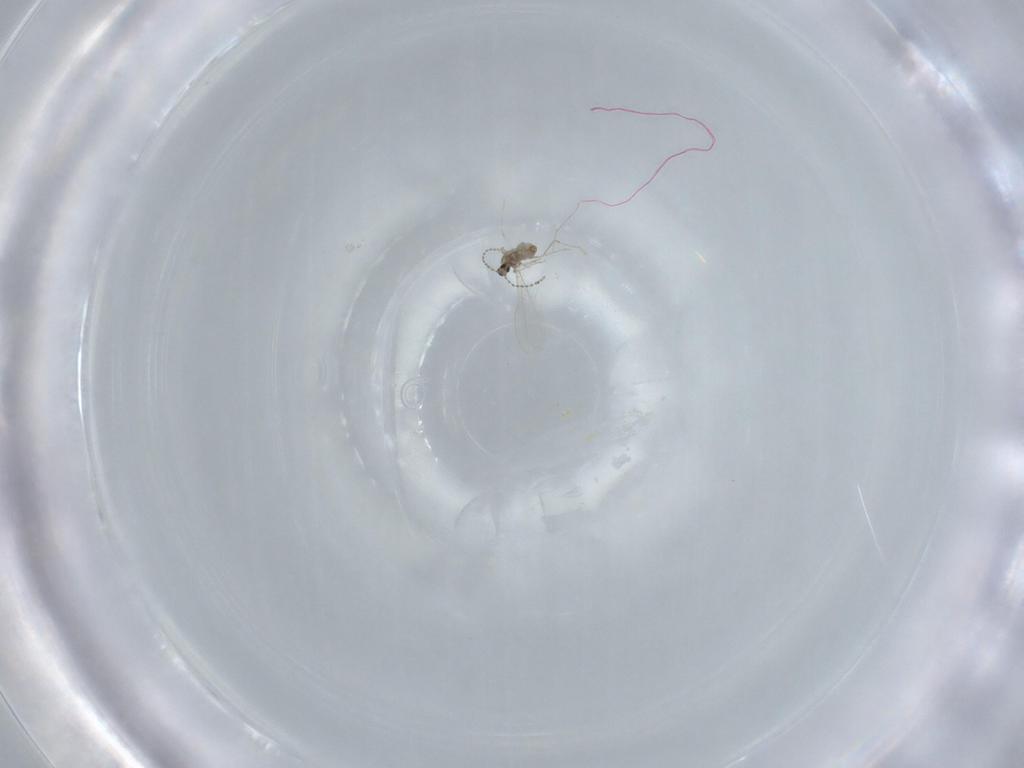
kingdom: Animalia
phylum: Arthropoda
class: Insecta
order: Diptera
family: Cecidomyiidae
